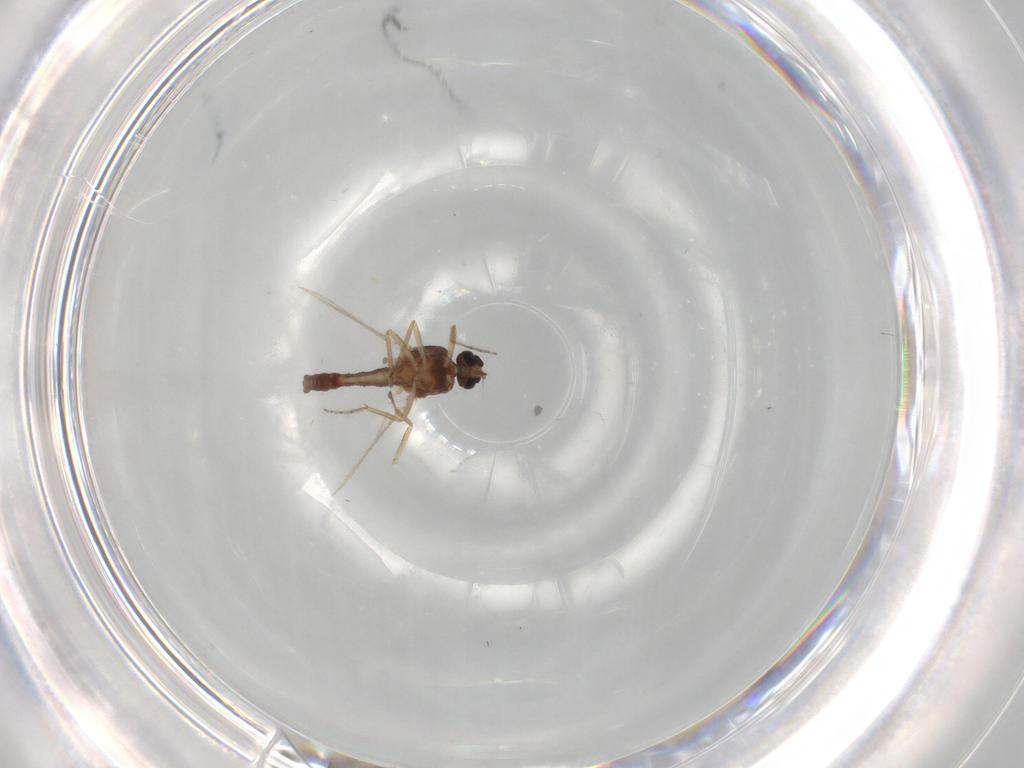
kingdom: Animalia
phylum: Arthropoda
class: Insecta
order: Diptera
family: Ceratopogonidae
